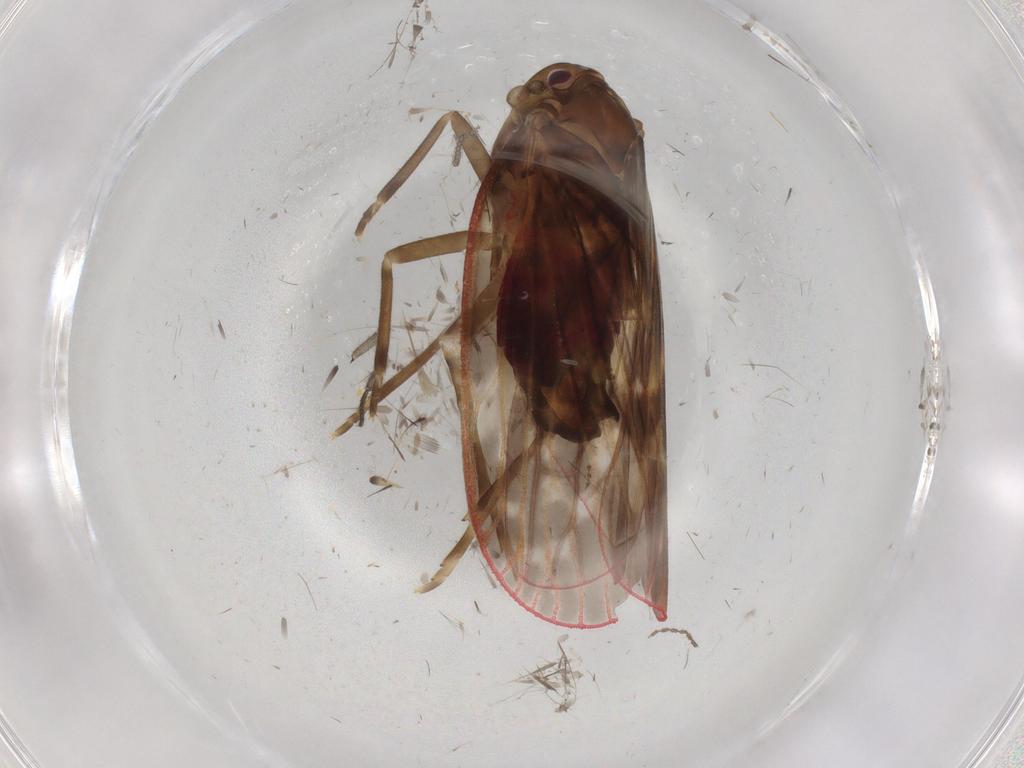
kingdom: Animalia
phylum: Arthropoda
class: Insecta
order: Hemiptera
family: Achilidae
